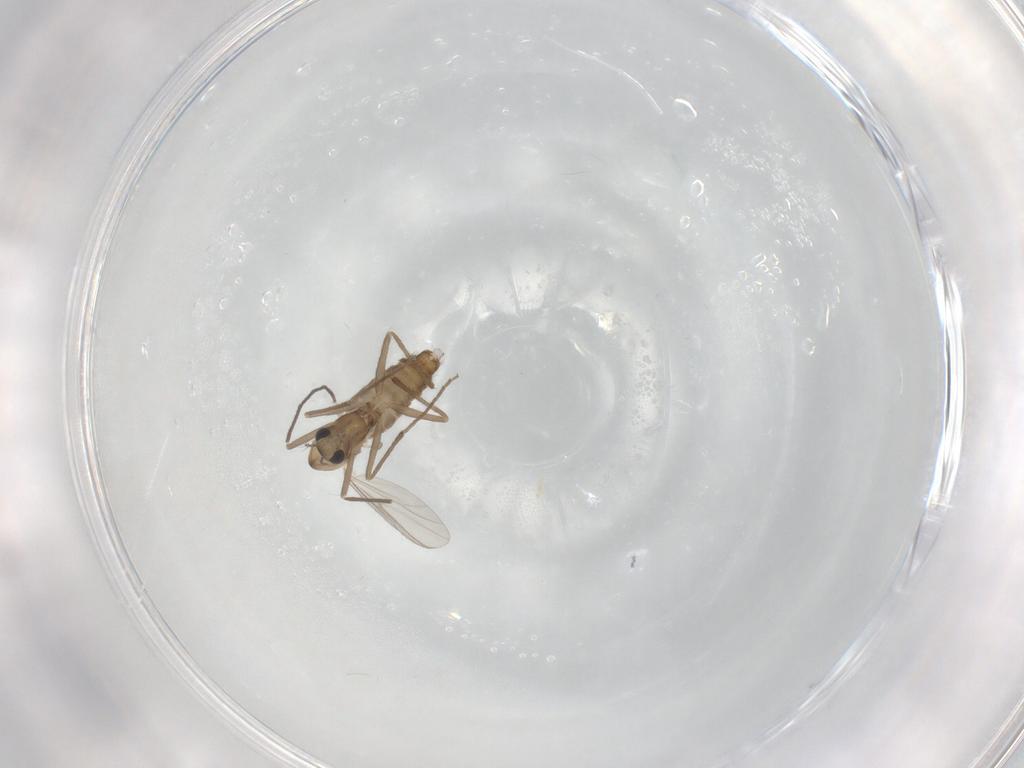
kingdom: Animalia
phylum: Arthropoda
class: Insecta
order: Diptera
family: Chironomidae
